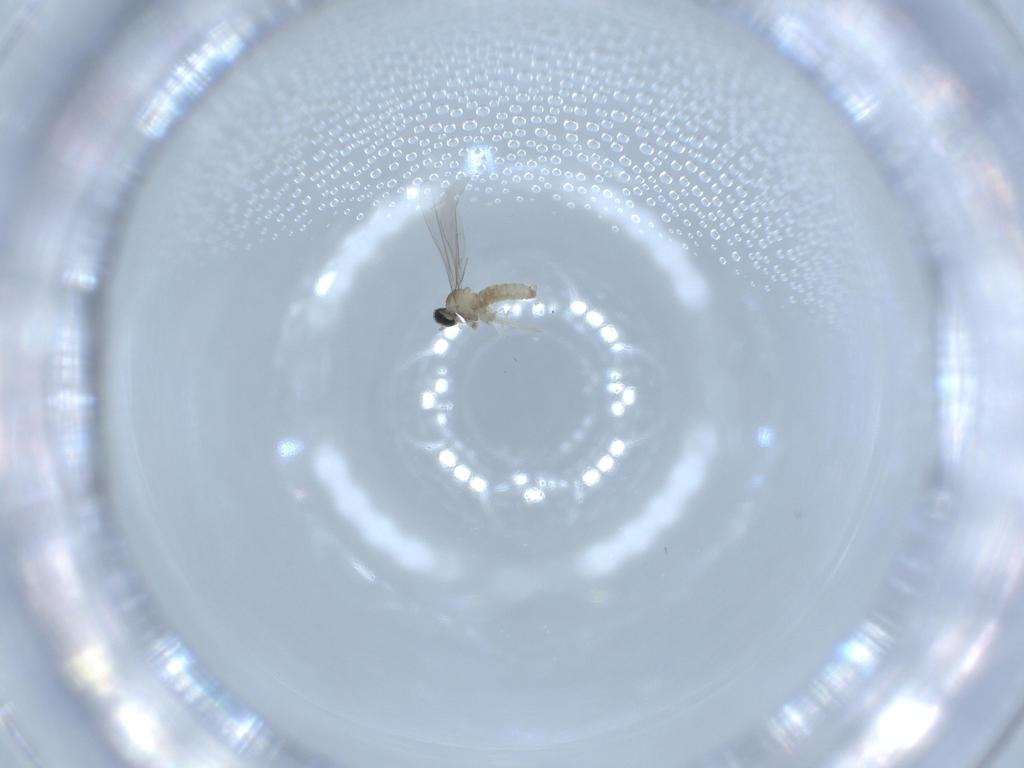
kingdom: Animalia
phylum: Arthropoda
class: Insecta
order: Diptera
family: Cecidomyiidae
